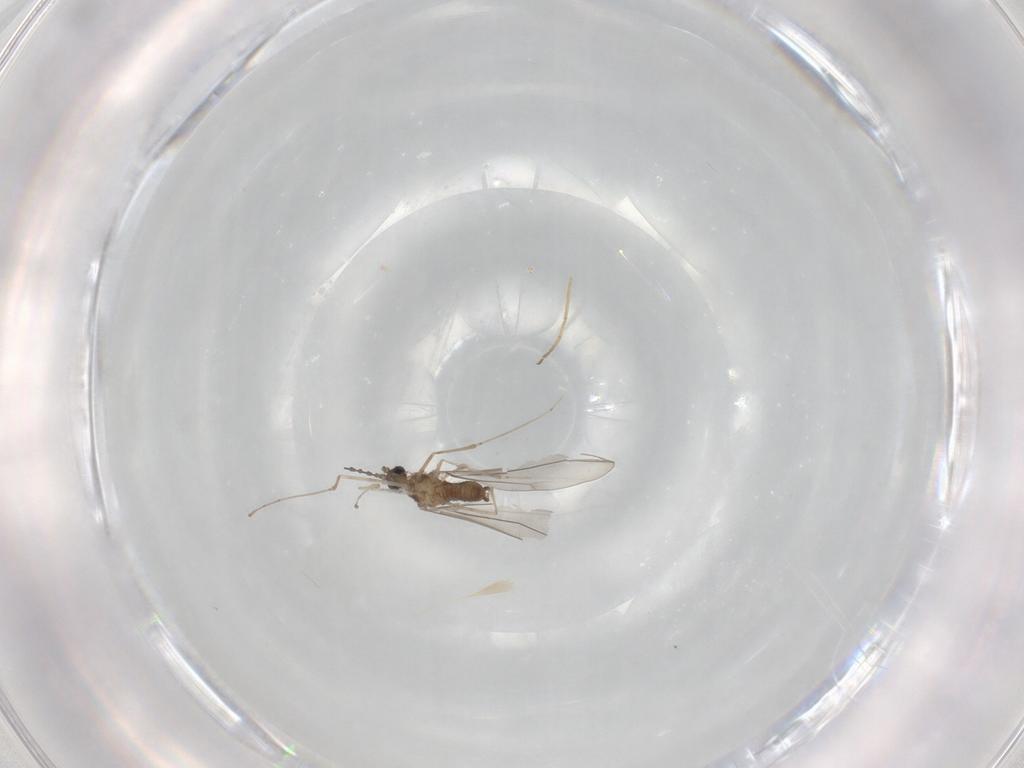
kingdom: Animalia
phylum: Arthropoda
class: Insecta
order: Diptera
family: Cecidomyiidae
